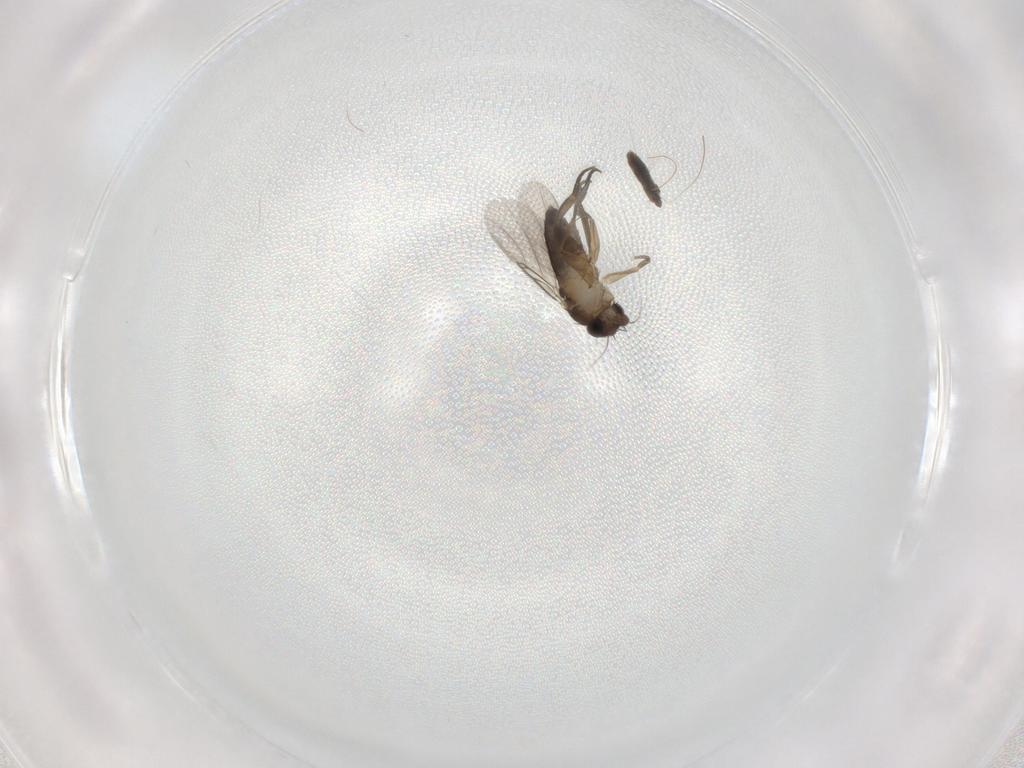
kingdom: Animalia
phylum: Arthropoda
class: Insecta
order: Diptera
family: Phoridae
